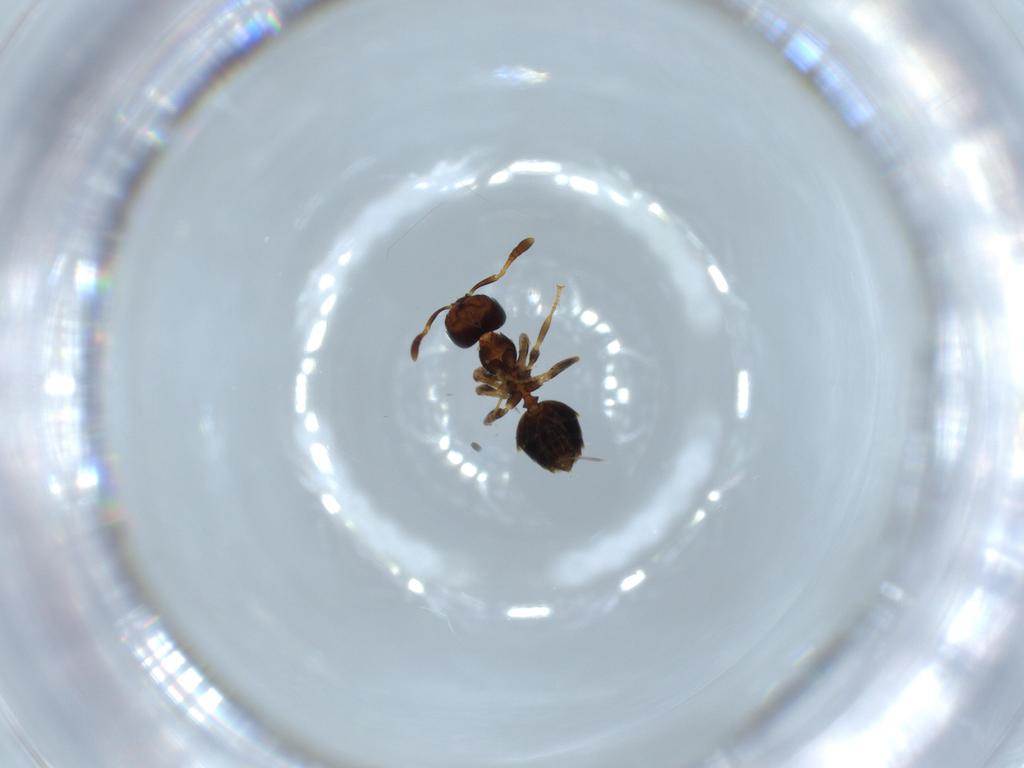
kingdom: Animalia
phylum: Arthropoda
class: Insecta
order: Hymenoptera
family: Formicidae
